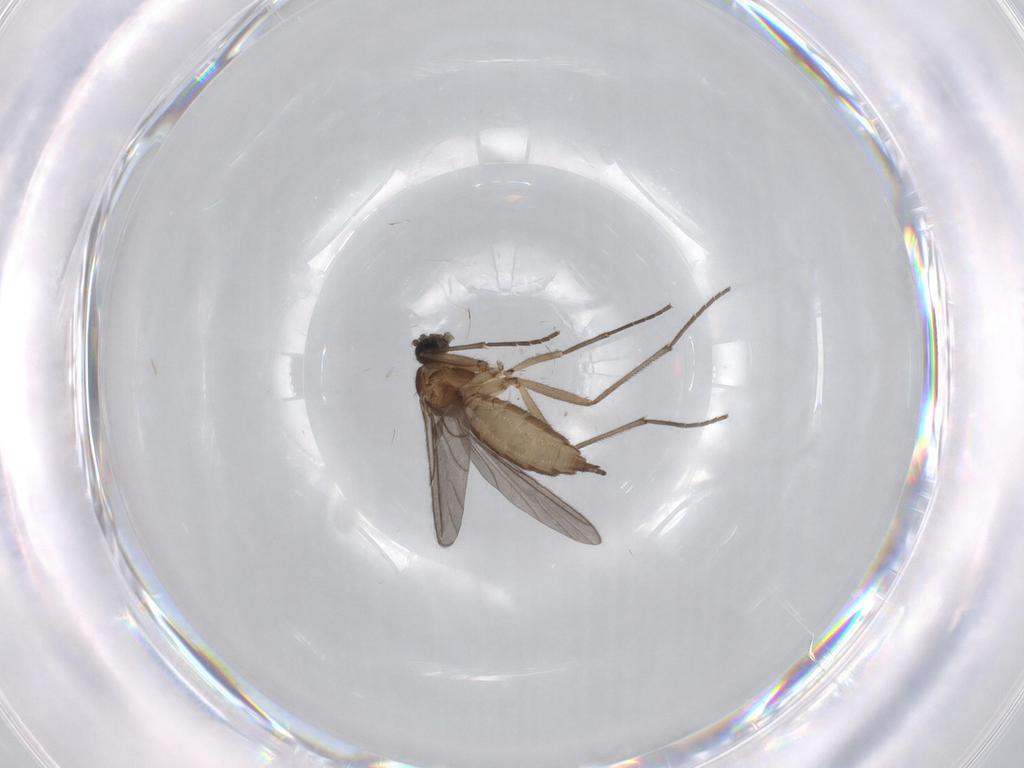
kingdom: Animalia
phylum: Arthropoda
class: Insecta
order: Diptera
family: Sciaridae
